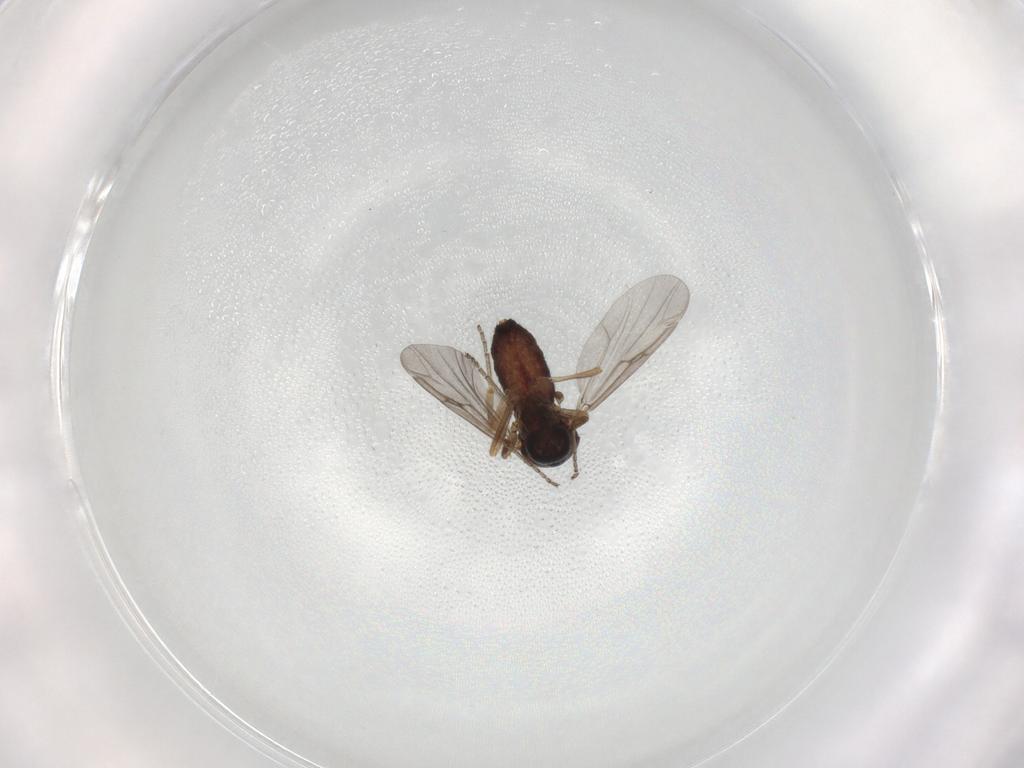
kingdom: Animalia
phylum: Arthropoda
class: Insecta
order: Diptera
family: Ceratopogonidae
